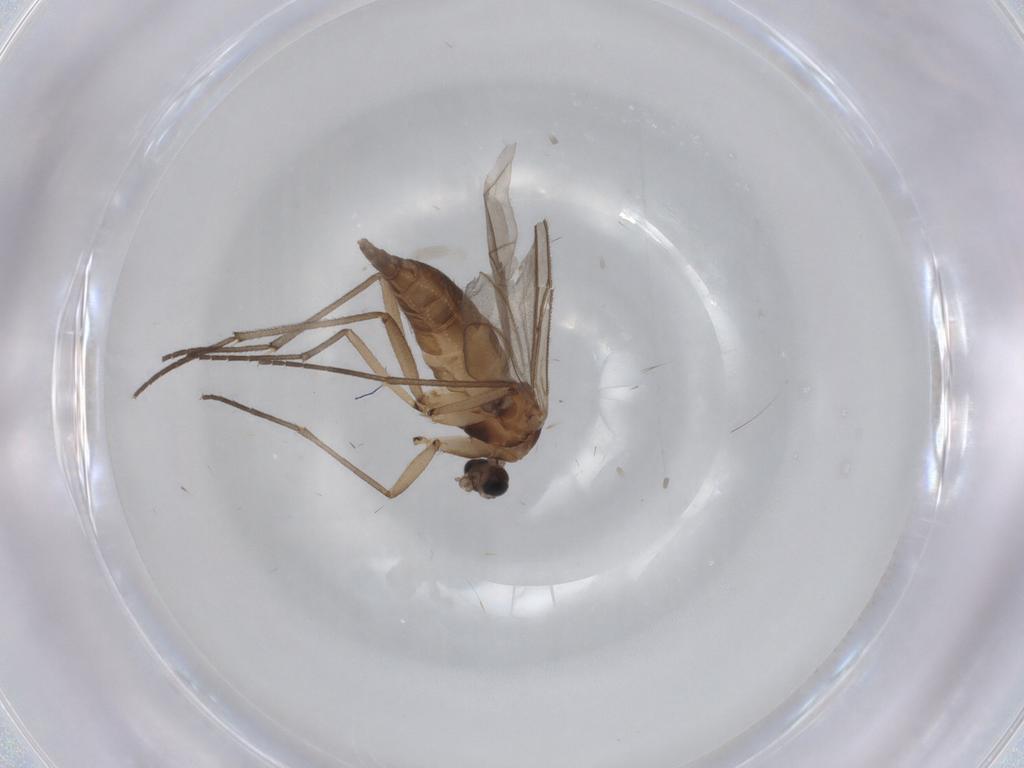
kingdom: Animalia
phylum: Arthropoda
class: Insecta
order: Diptera
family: Sciaridae
